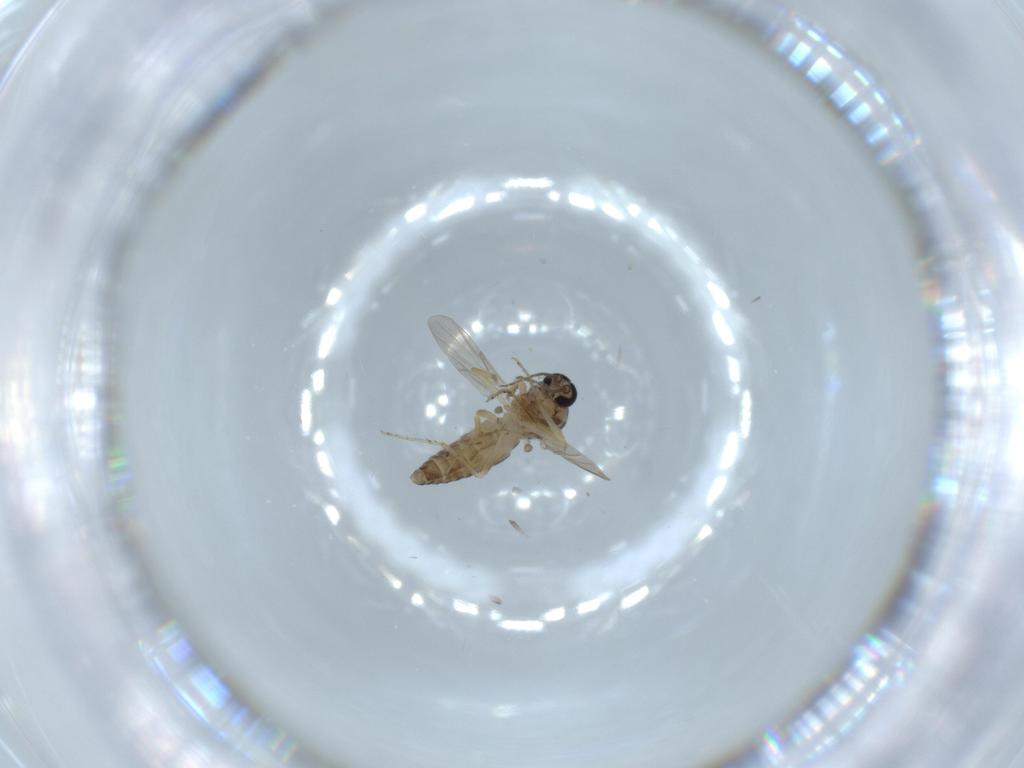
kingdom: Animalia
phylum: Arthropoda
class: Insecta
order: Diptera
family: Ceratopogonidae
